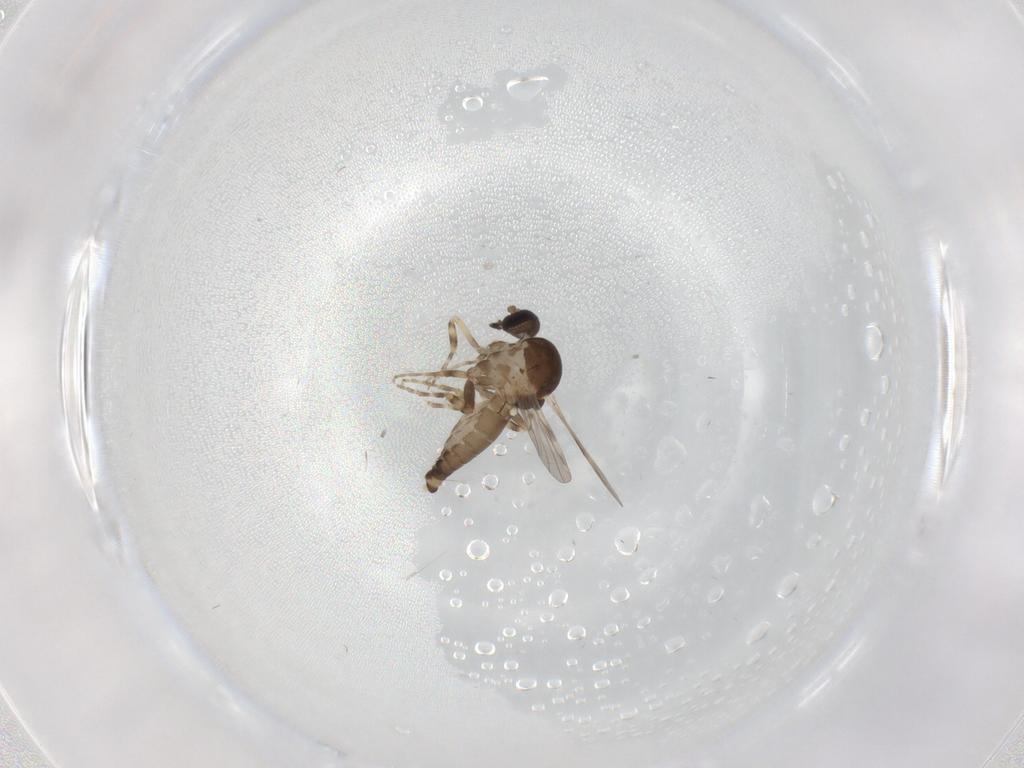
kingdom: Animalia
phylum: Arthropoda
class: Insecta
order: Diptera
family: Ceratopogonidae
